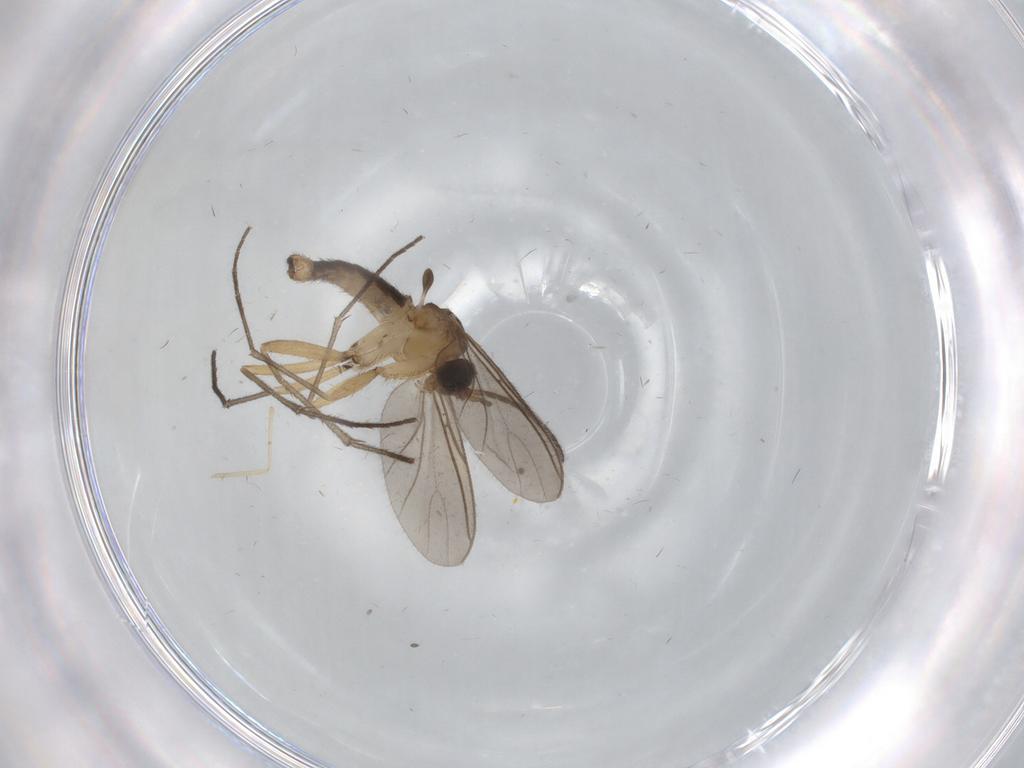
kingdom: Animalia
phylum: Arthropoda
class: Insecta
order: Diptera
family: Sciaridae
